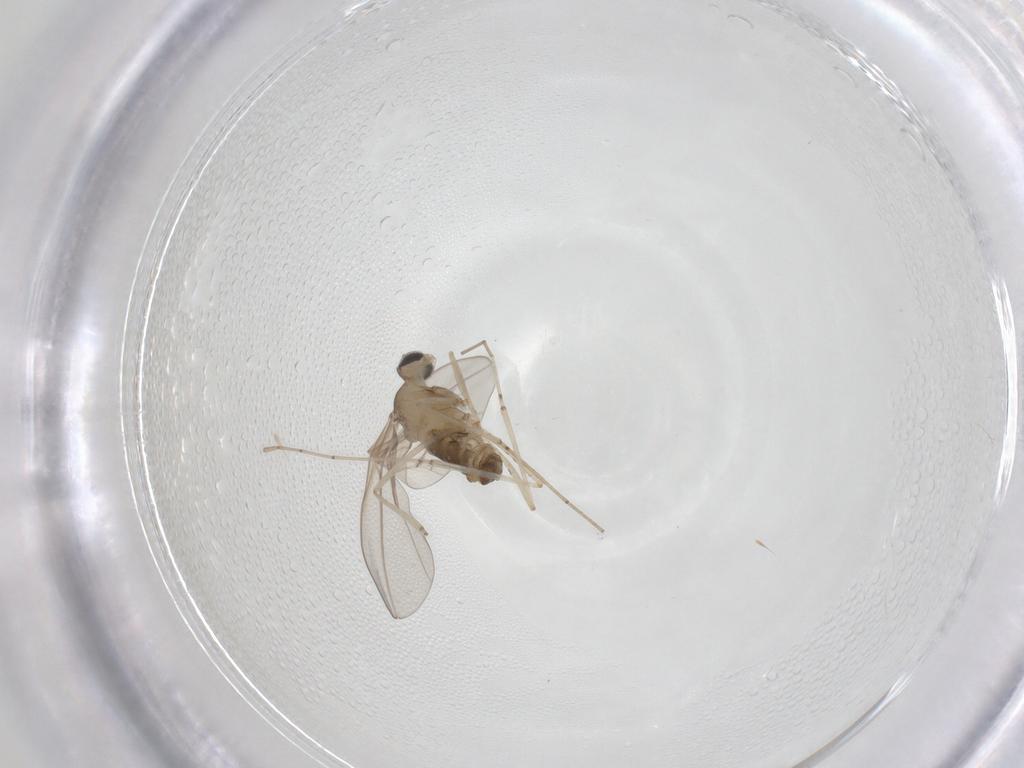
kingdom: Animalia
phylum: Arthropoda
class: Insecta
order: Diptera
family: Cecidomyiidae
